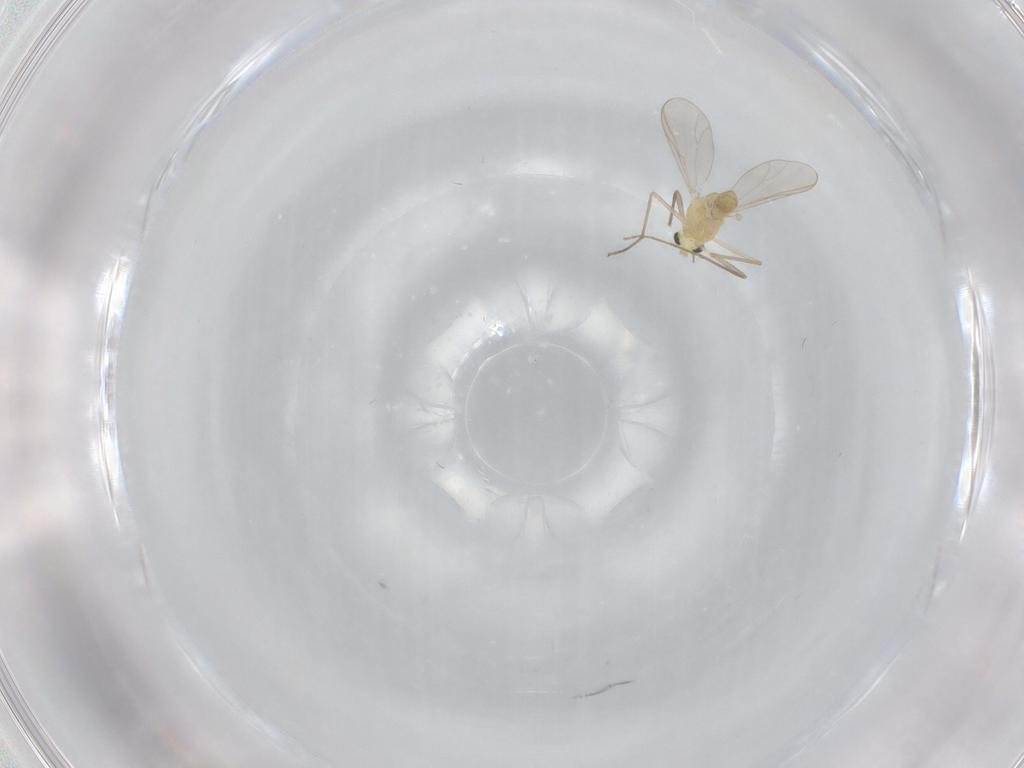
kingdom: Animalia
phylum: Arthropoda
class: Insecta
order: Diptera
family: Chironomidae
